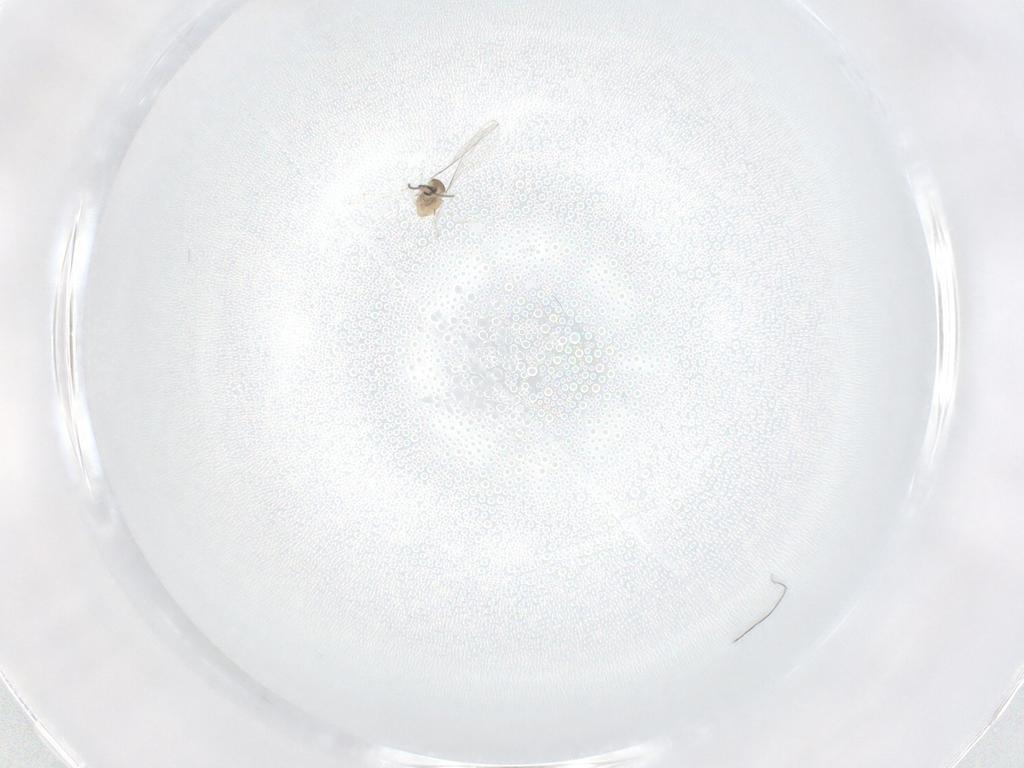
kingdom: Animalia
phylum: Arthropoda
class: Insecta
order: Diptera
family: Cecidomyiidae
